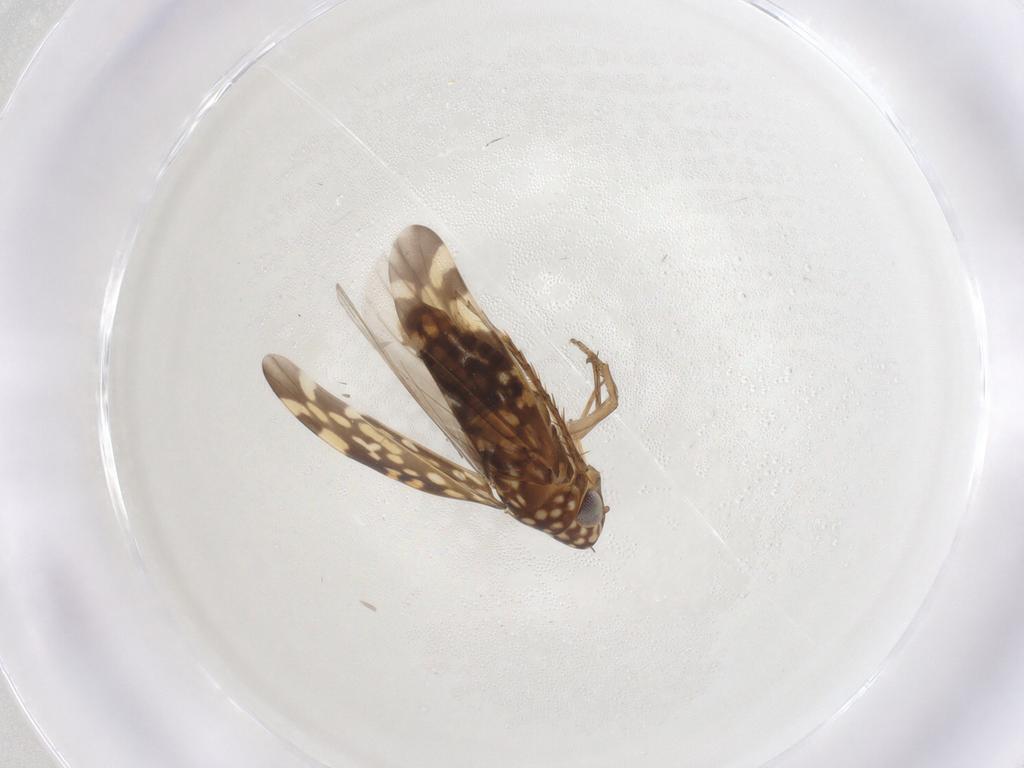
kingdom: Animalia
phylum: Arthropoda
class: Insecta
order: Hemiptera
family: Cicadellidae
